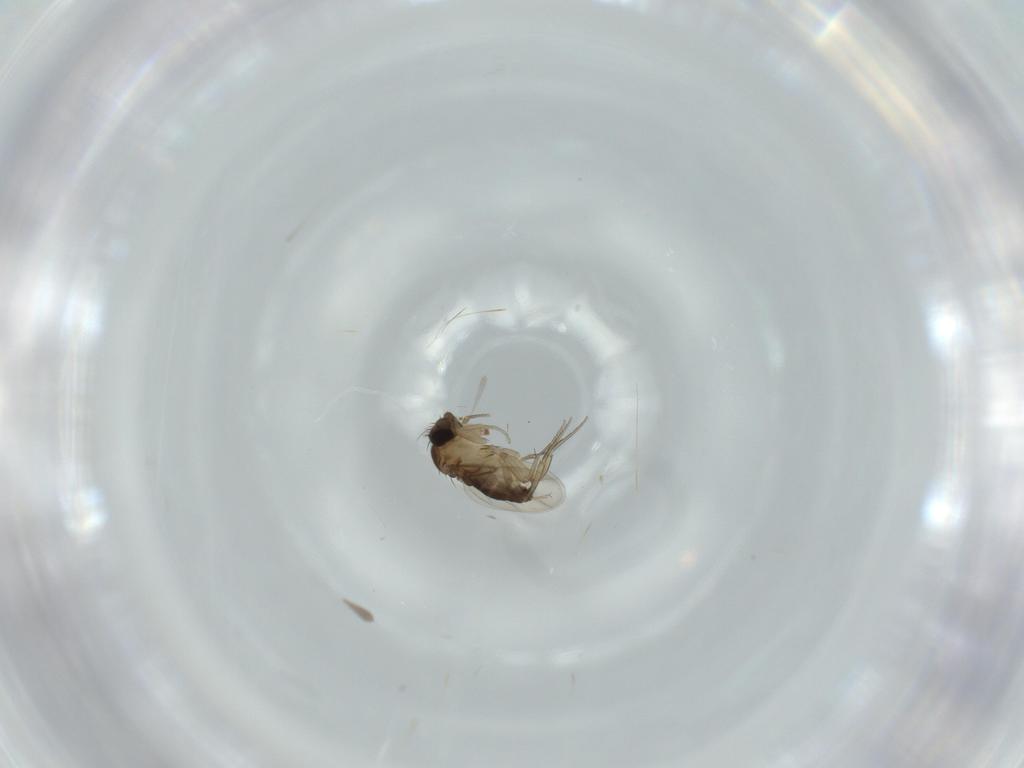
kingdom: Animalia
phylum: Arthropoda
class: Insecta
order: Diptera
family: Phoridae
